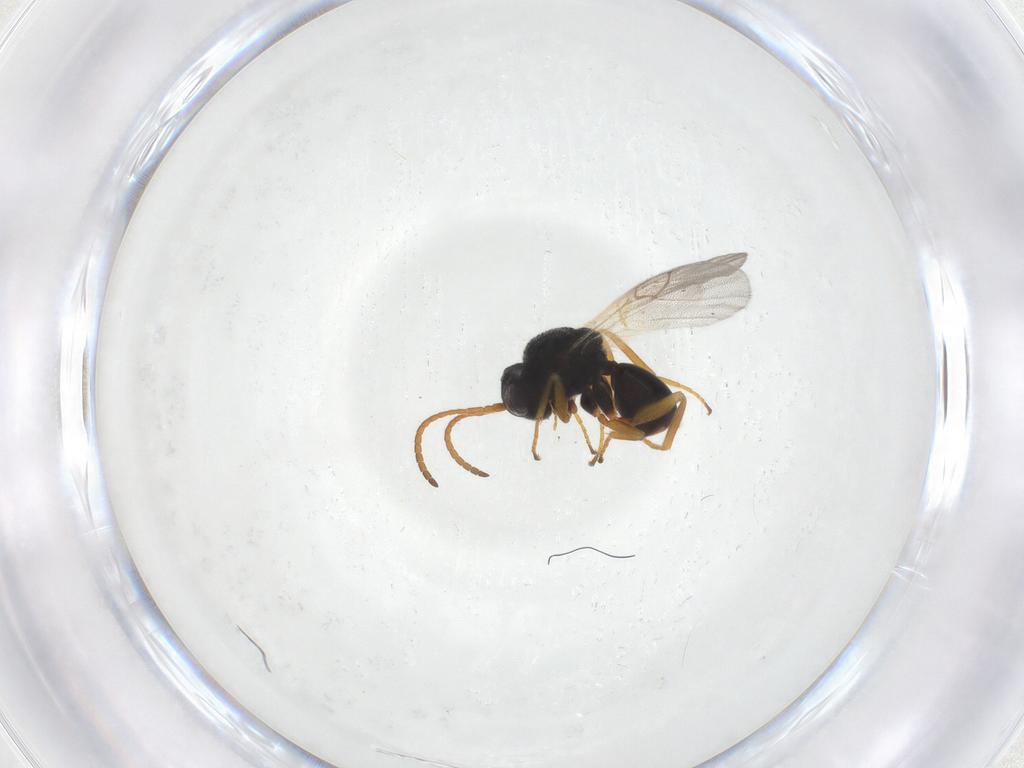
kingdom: Animalia
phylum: Arthropoda
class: Insecta
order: Hymenoptera
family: Cynipidae
